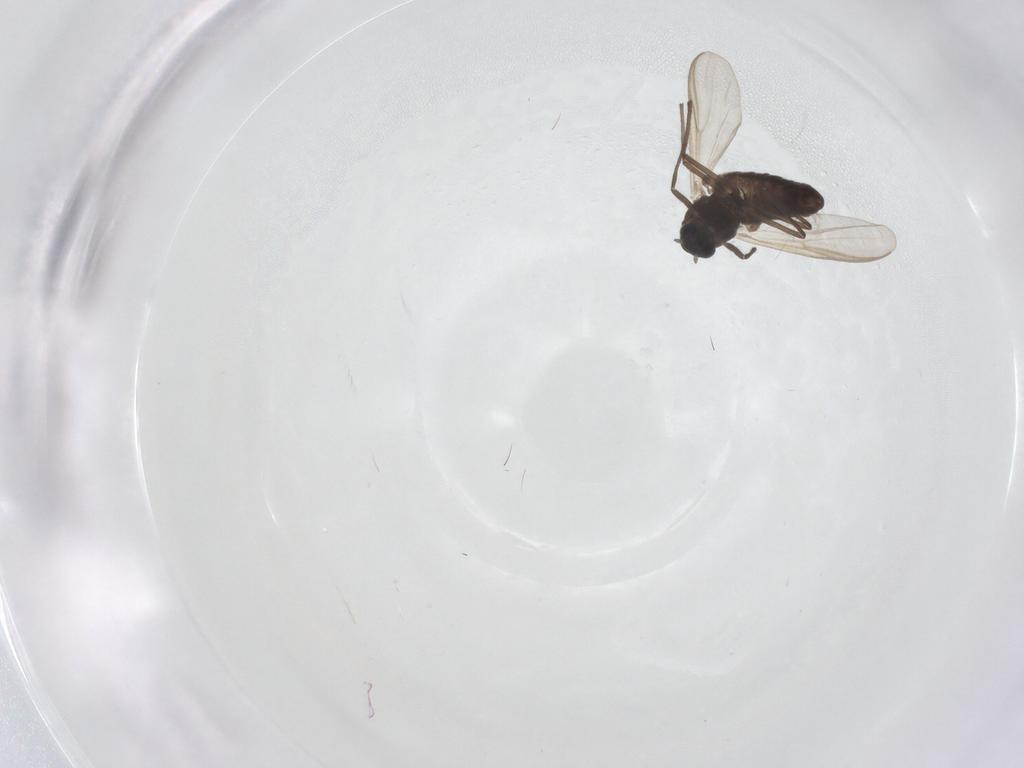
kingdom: Animalia
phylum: Arthropoda
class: Insecta
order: Diptera
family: Chironomidae
